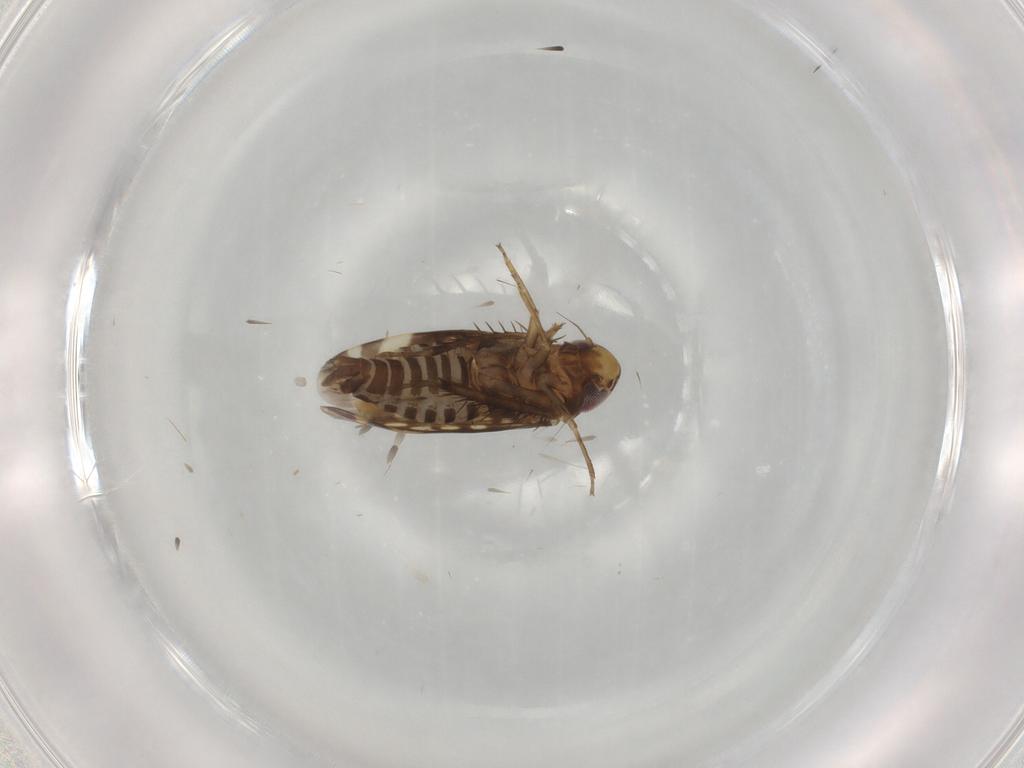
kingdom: Animalia
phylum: Arthropoda
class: Insecta
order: Hemiptera
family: Cicadellidae
